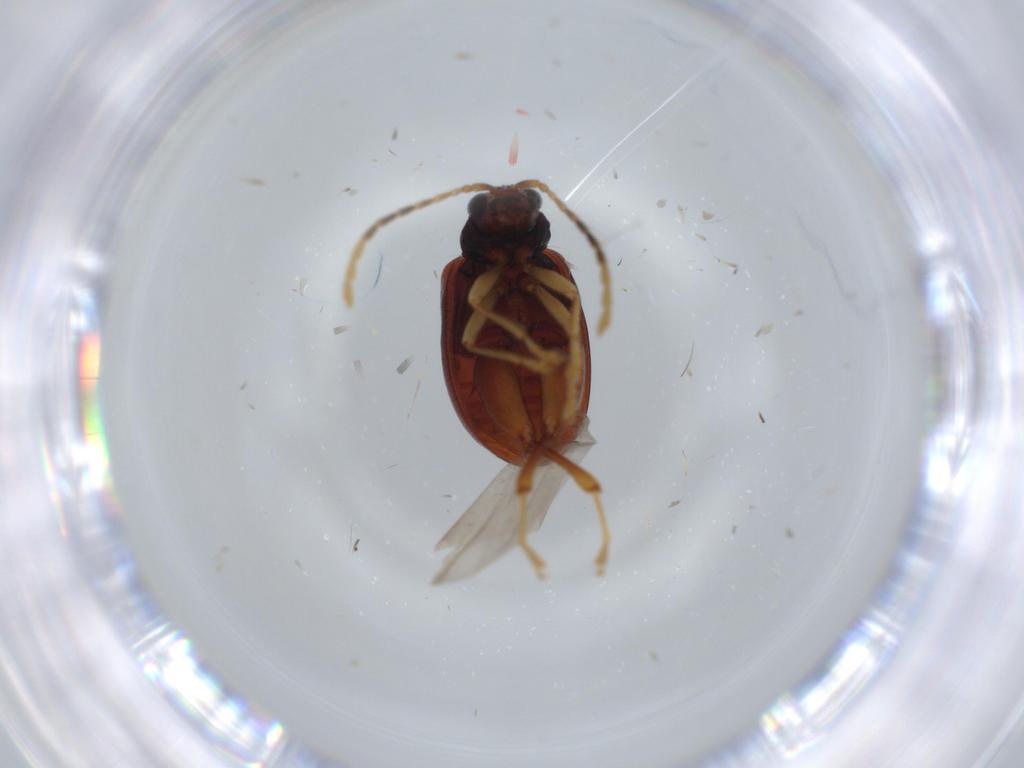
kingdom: Animalia
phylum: Arthropoda
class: Insecta
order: Coleoptera
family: Chrysomelidae
